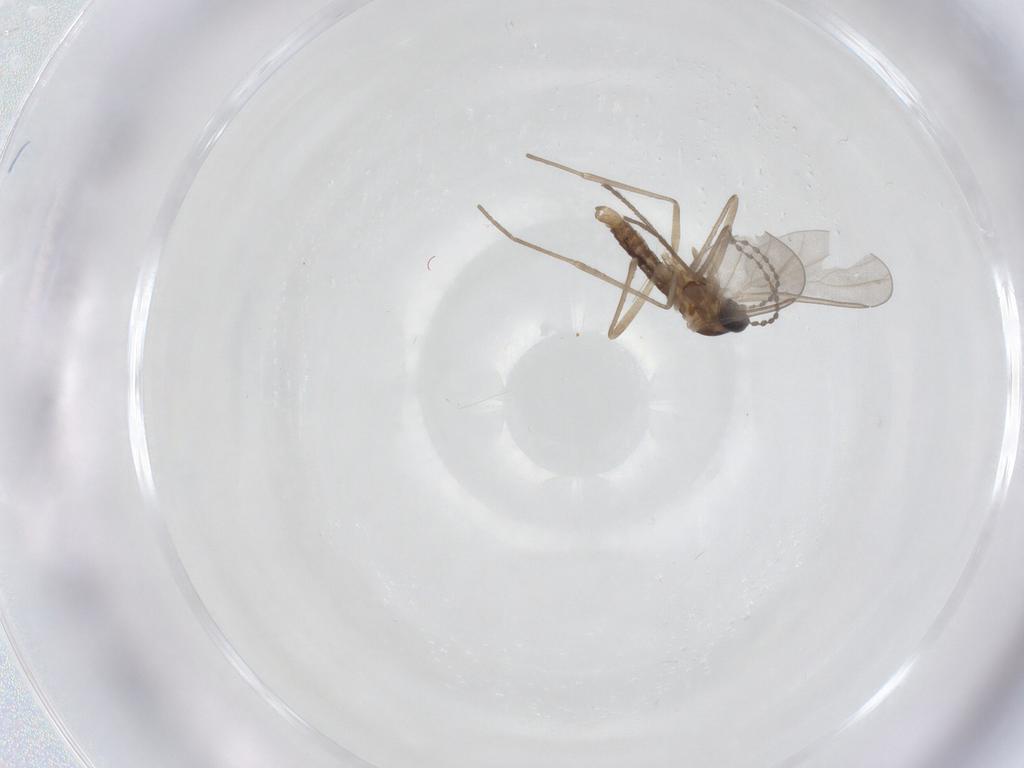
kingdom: Animalia
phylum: Arthropoda
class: Insecta
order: Diptera
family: Cecidomyiidae
